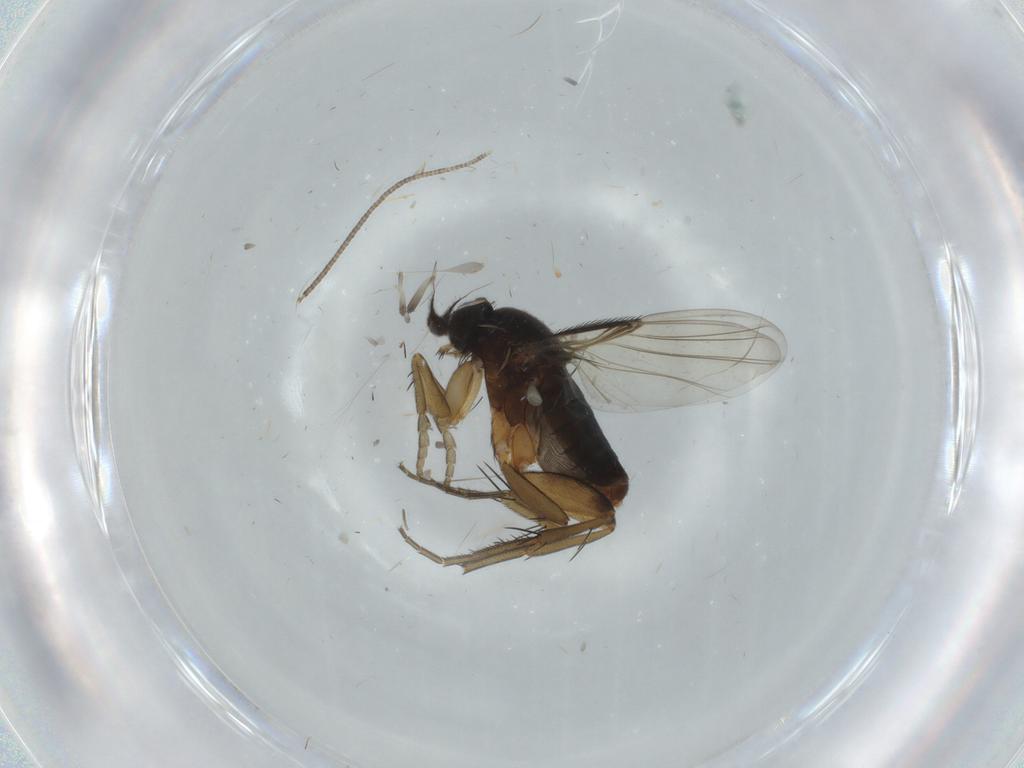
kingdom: Animalia
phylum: Arthropoda
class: Insecta
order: Diptera
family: Phoridae
